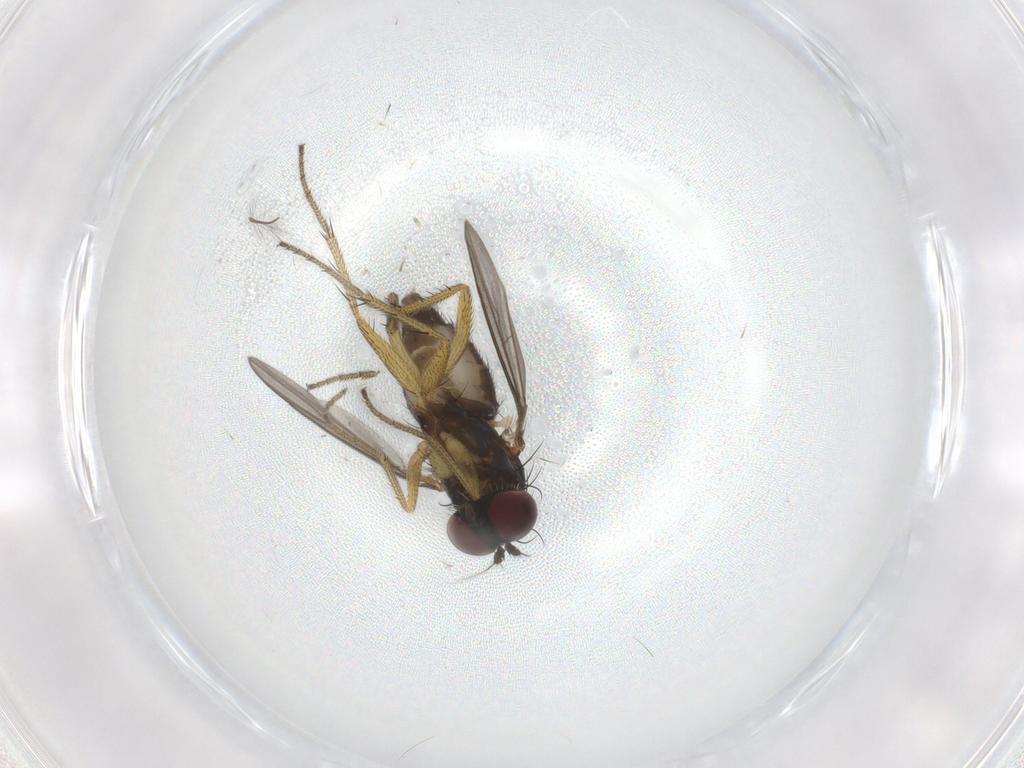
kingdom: Animalia
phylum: Arthropoda
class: Insecta
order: Diptera
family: Dolichopodidae
